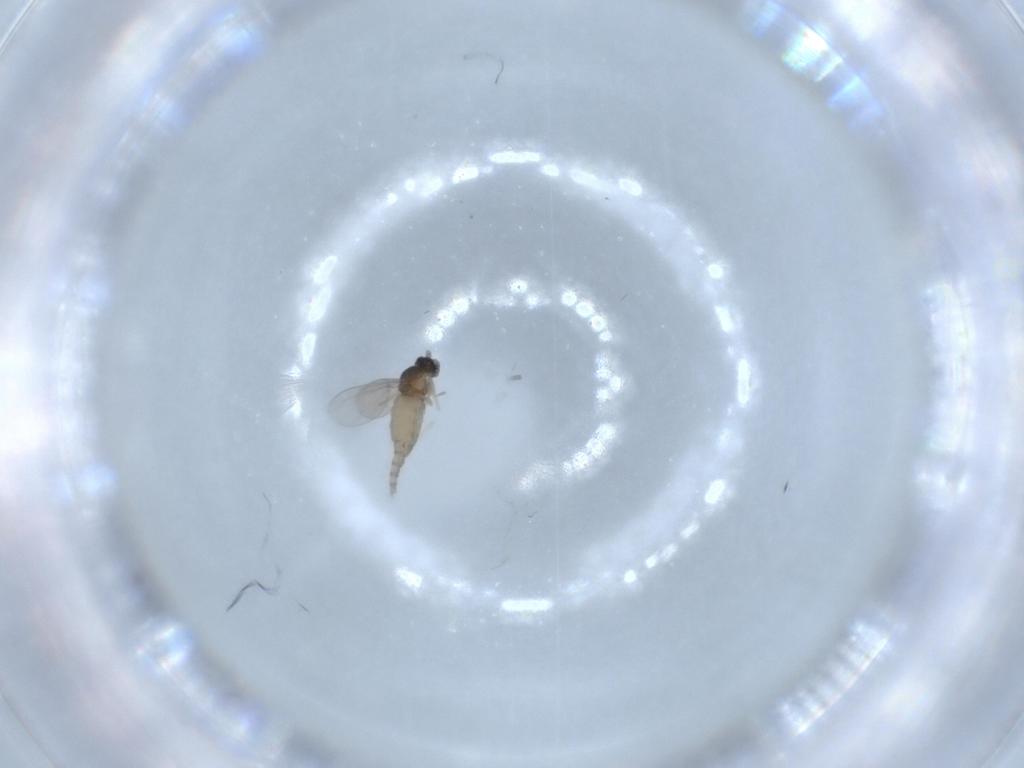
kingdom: Animalia
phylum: Arthropoda
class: Insecta
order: Diptera
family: Cecidomyiidae
